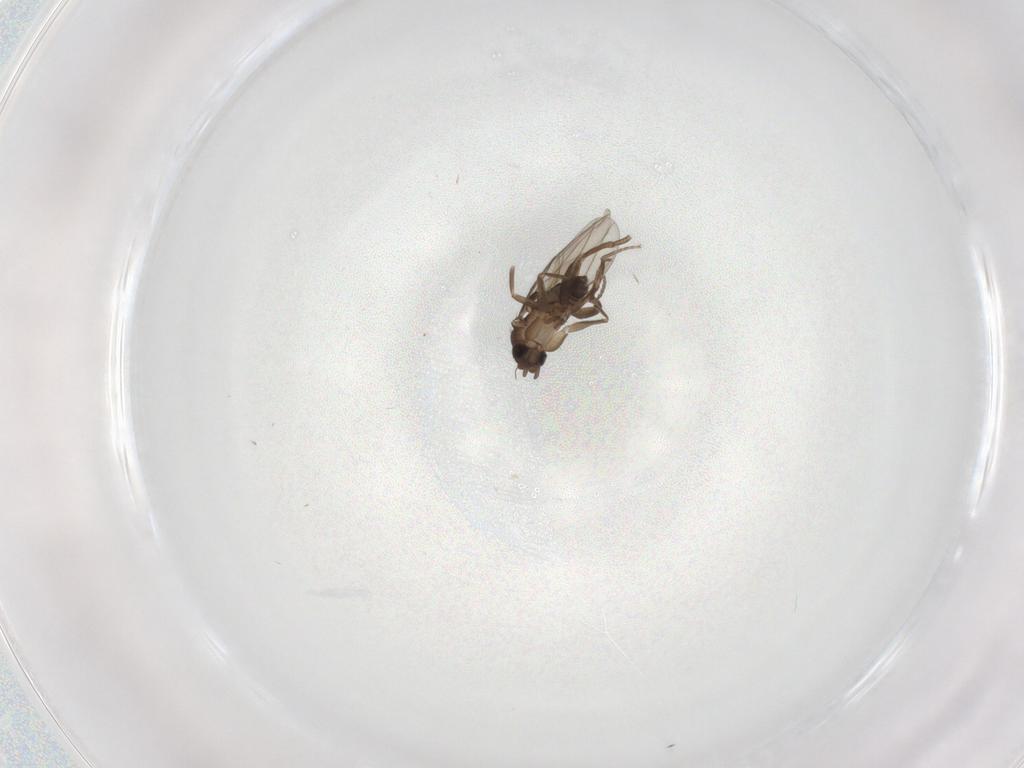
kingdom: Animalia
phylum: Arthropoda
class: Insecta
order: Diptera
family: Cecidomyiidae
